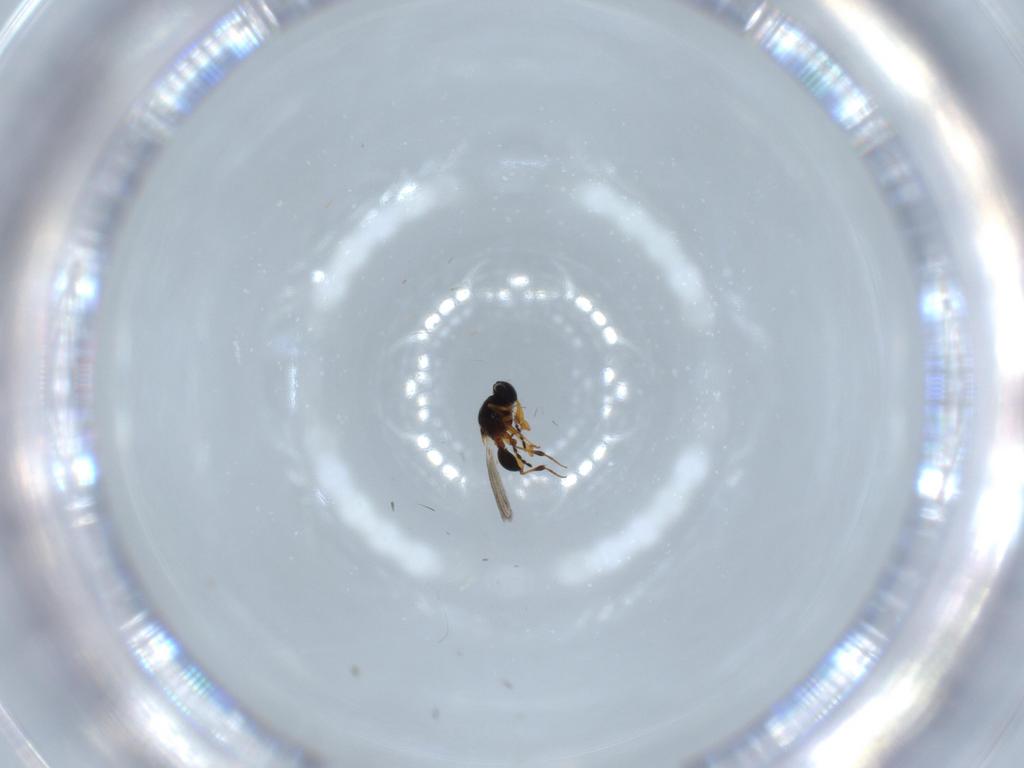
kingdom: Animalia
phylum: Arthropoda
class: Insecta
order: Hymenoptera
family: Platygastridae
